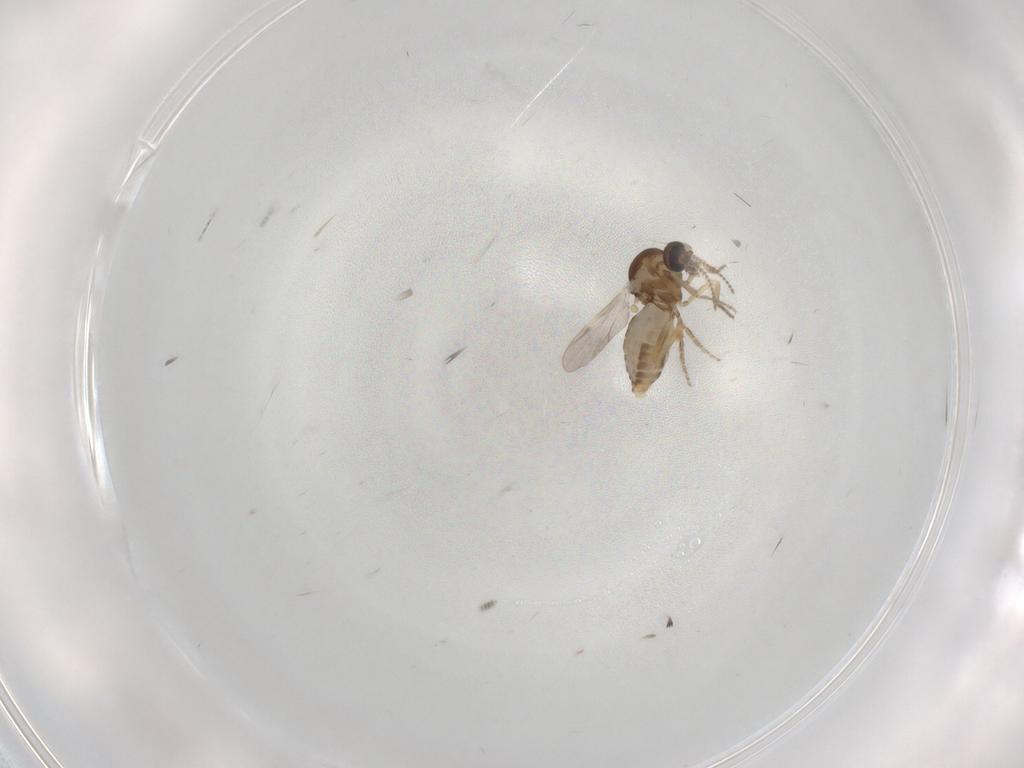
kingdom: Animalia
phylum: Arthropoda
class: Insecta
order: Diptera
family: Ceratopogonidae
